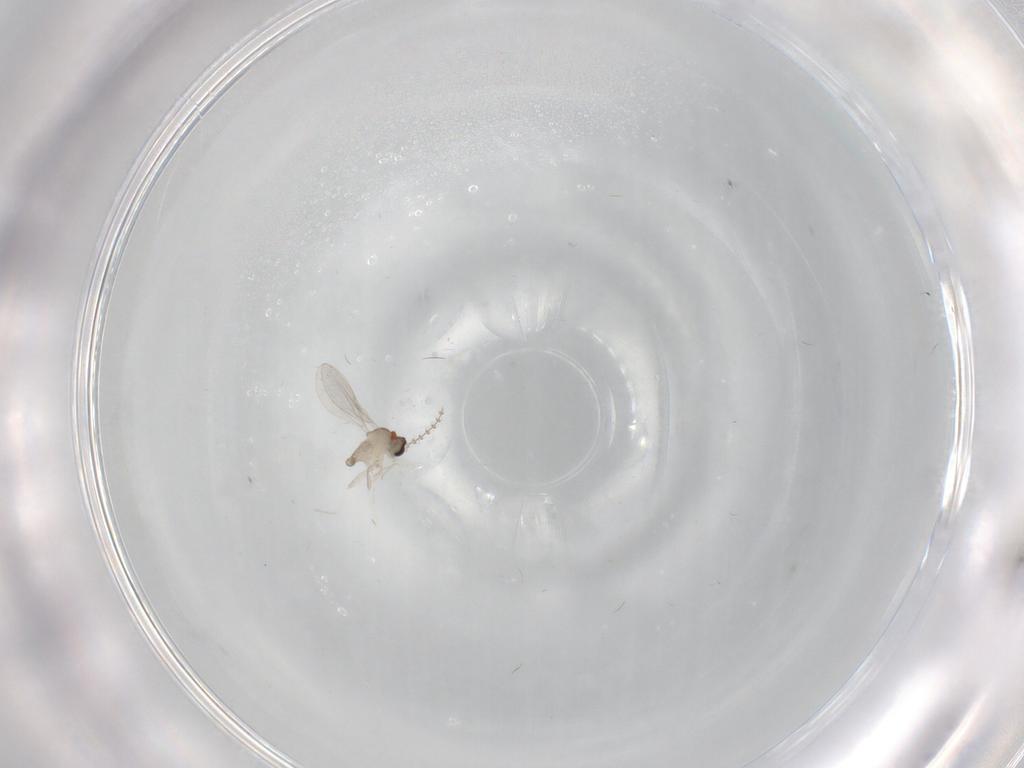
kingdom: Animalia
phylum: Arthropoda
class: Insecta
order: Diptera
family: Cecidomyiidae
